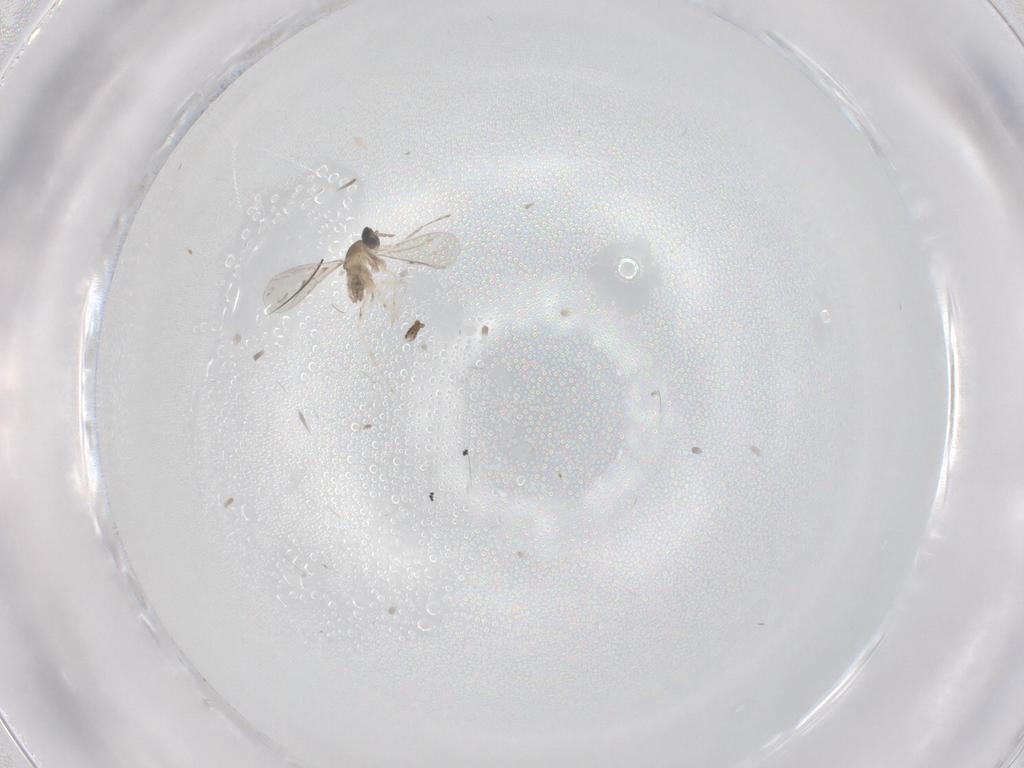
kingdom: Animalia
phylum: Arthropoda
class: Insecta
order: Diptera
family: Cecidomyiidae
